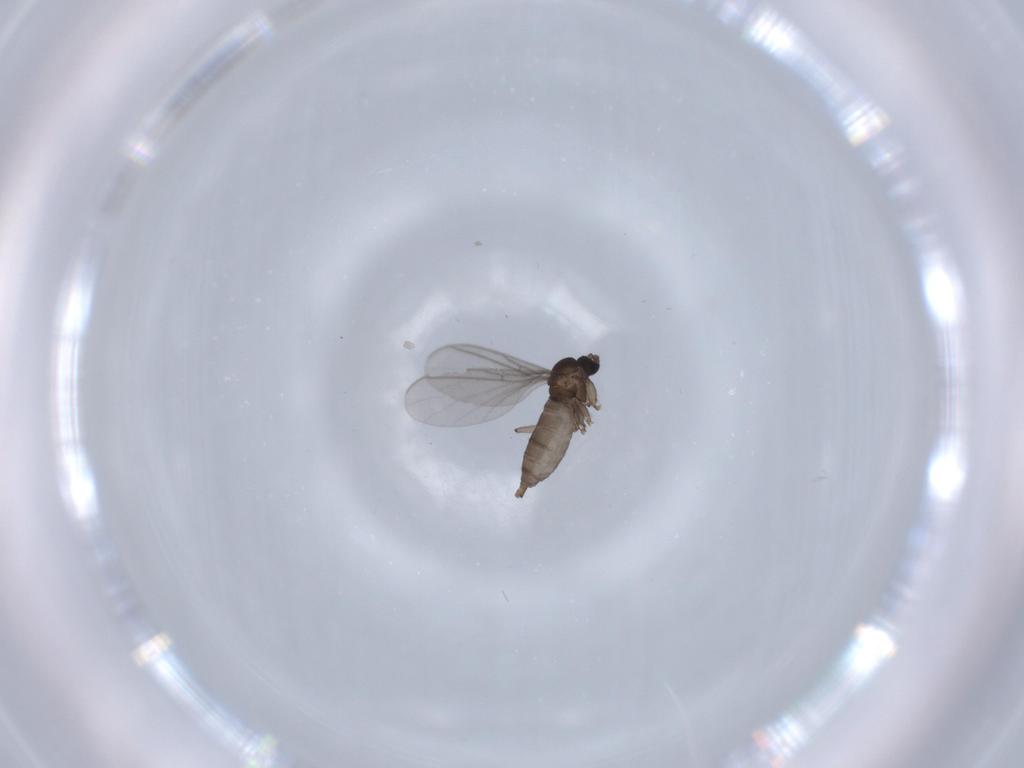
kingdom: Animalia
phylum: Arthropoda
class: Insecta
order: Diptera
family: Sciaridae
